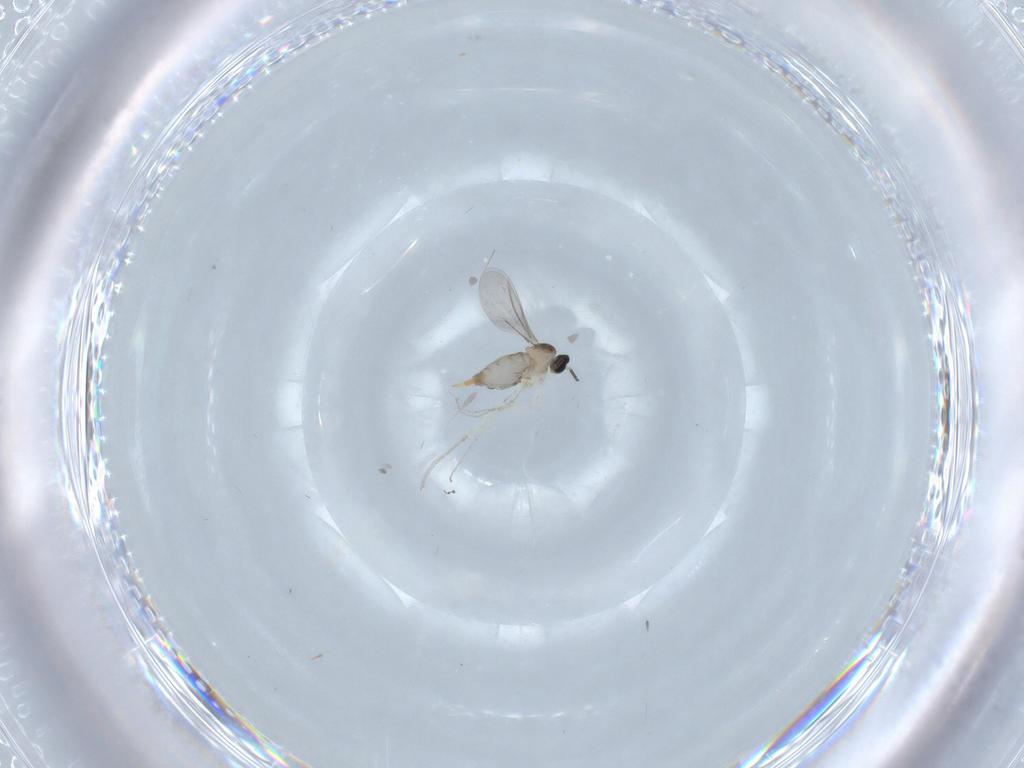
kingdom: Animalia
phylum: Arthropoda
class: Insecta
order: Diptera
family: Cecidomyiidae
